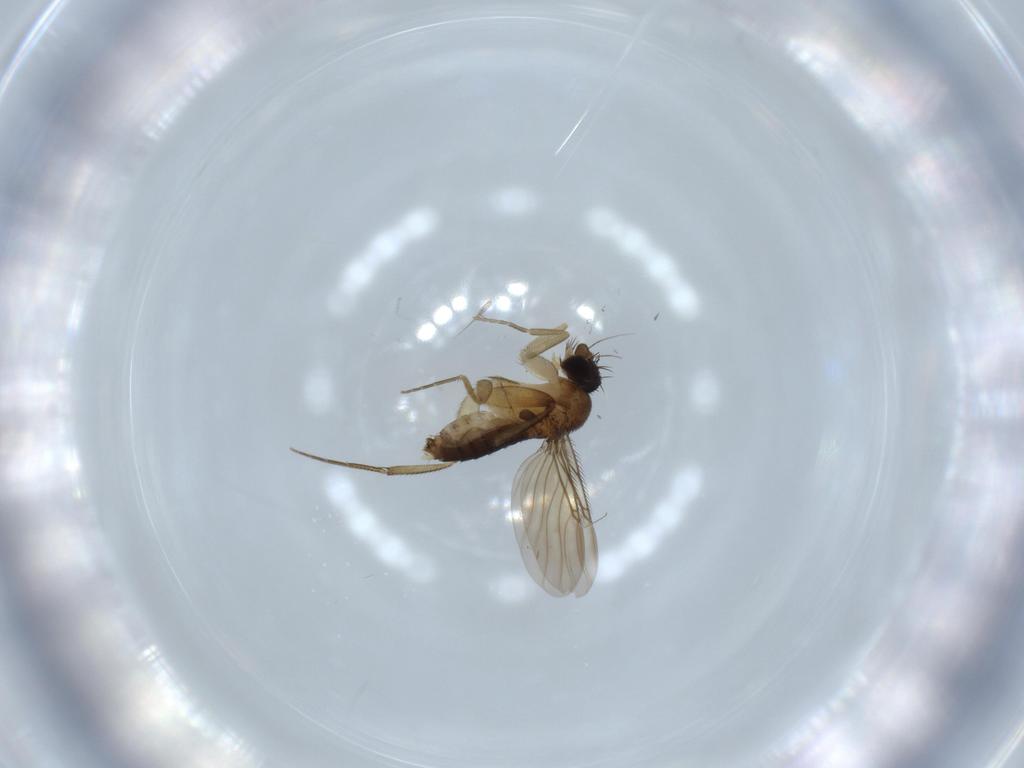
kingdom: Animalia
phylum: Arthropoda
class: Insecta
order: Diptera
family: Phoridae
